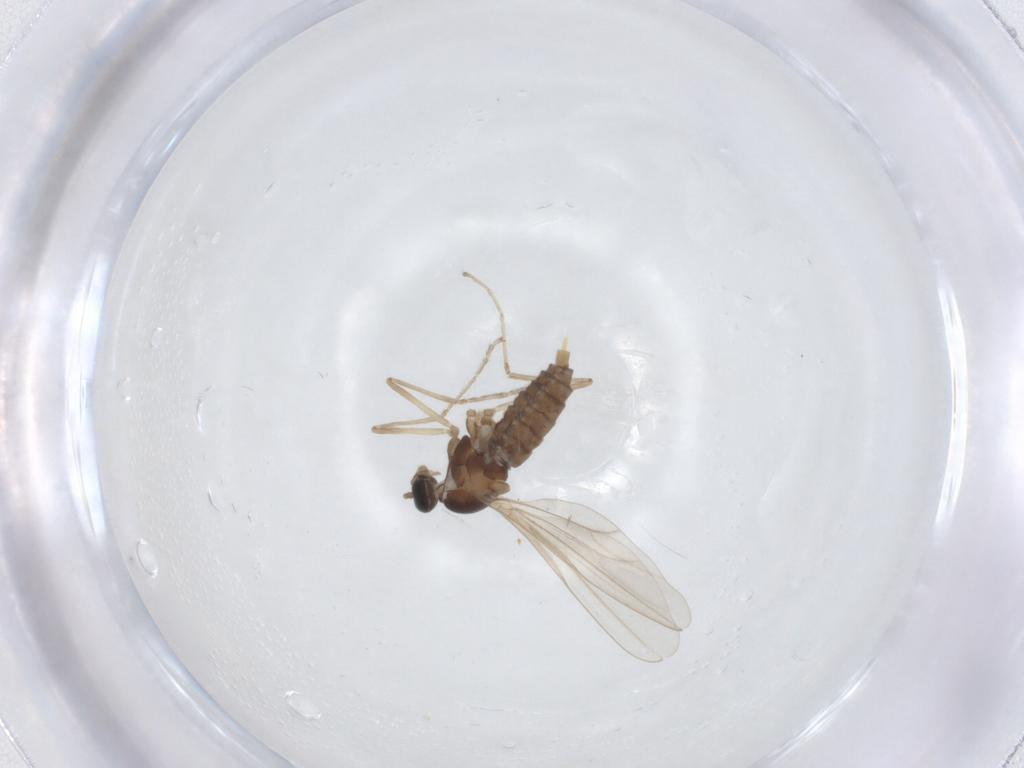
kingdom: Animalia
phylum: Arthropoda
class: Insecta
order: Diptera
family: Cecidomyiidae
